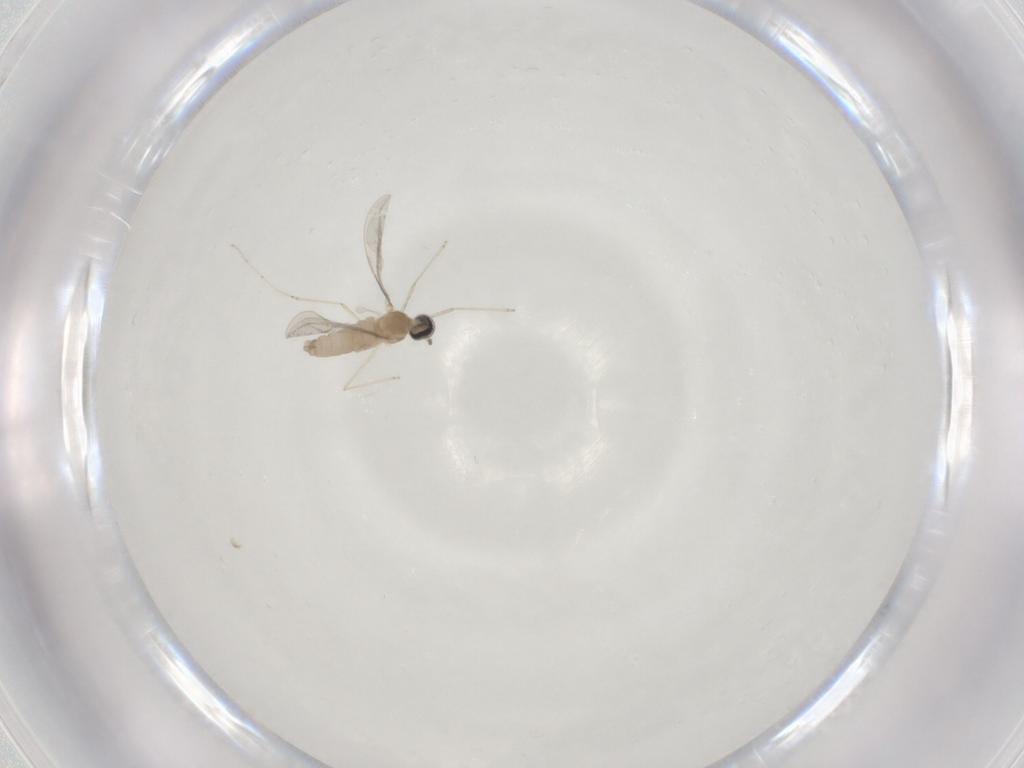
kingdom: Animalia
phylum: Arthropoda
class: Insecta
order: Diptera
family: Cecidomyiidae
